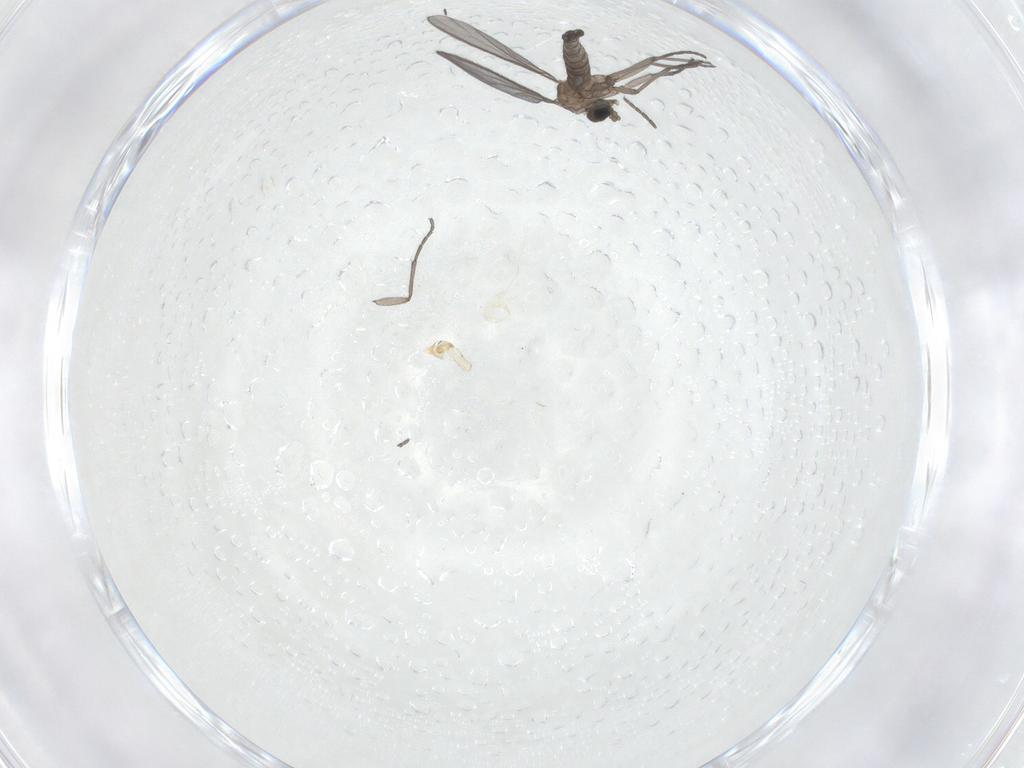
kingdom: Animalia
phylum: Arthropoda
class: Insecta
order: Diptera
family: Sciaridae
